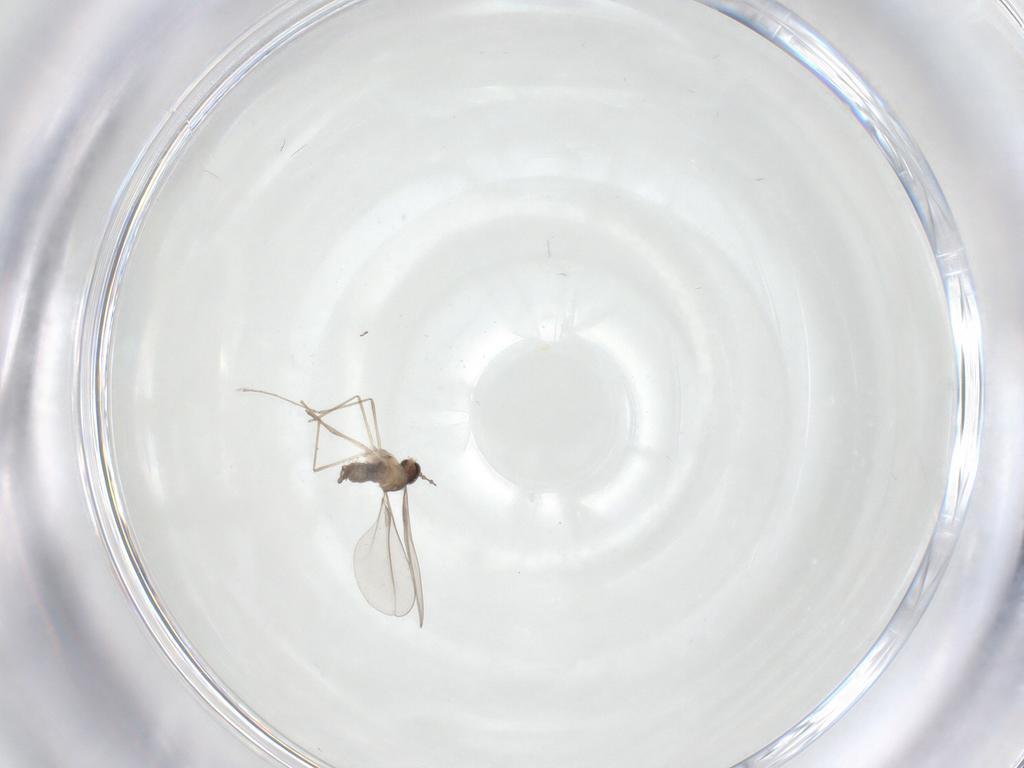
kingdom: Animalia
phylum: Arthropoda
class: Insecta
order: Diptera
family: Cecidomyiidae
